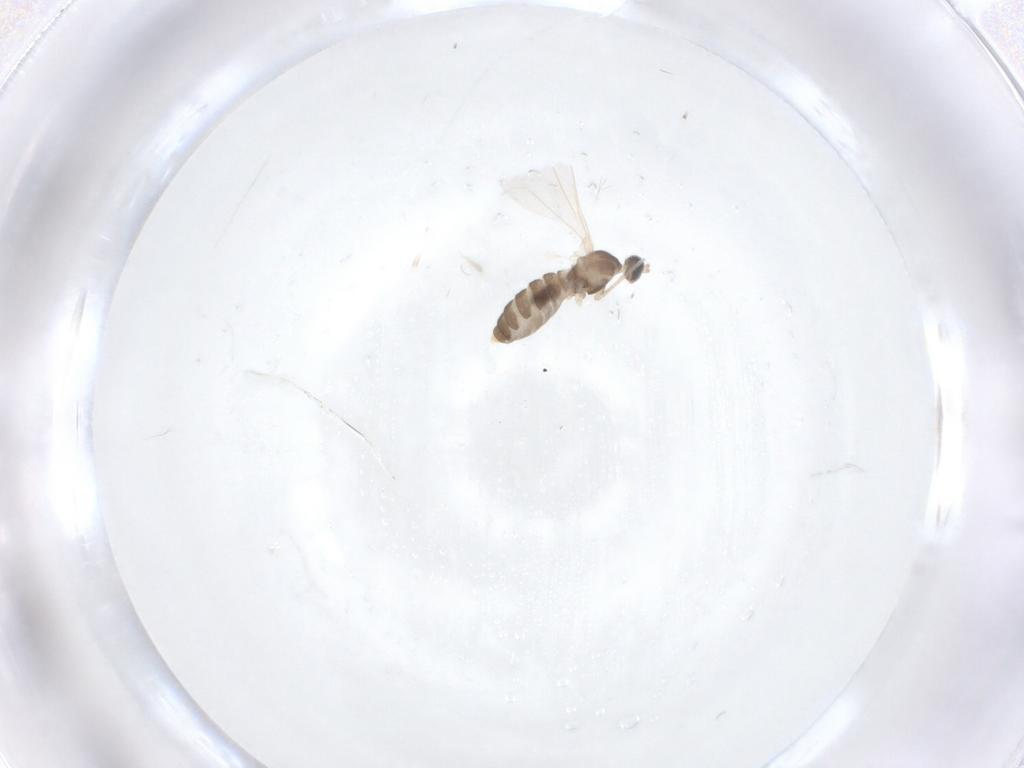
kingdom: Animalia
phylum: Arthropoda
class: Insecta
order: Diptera
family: Cecidomyiidae
